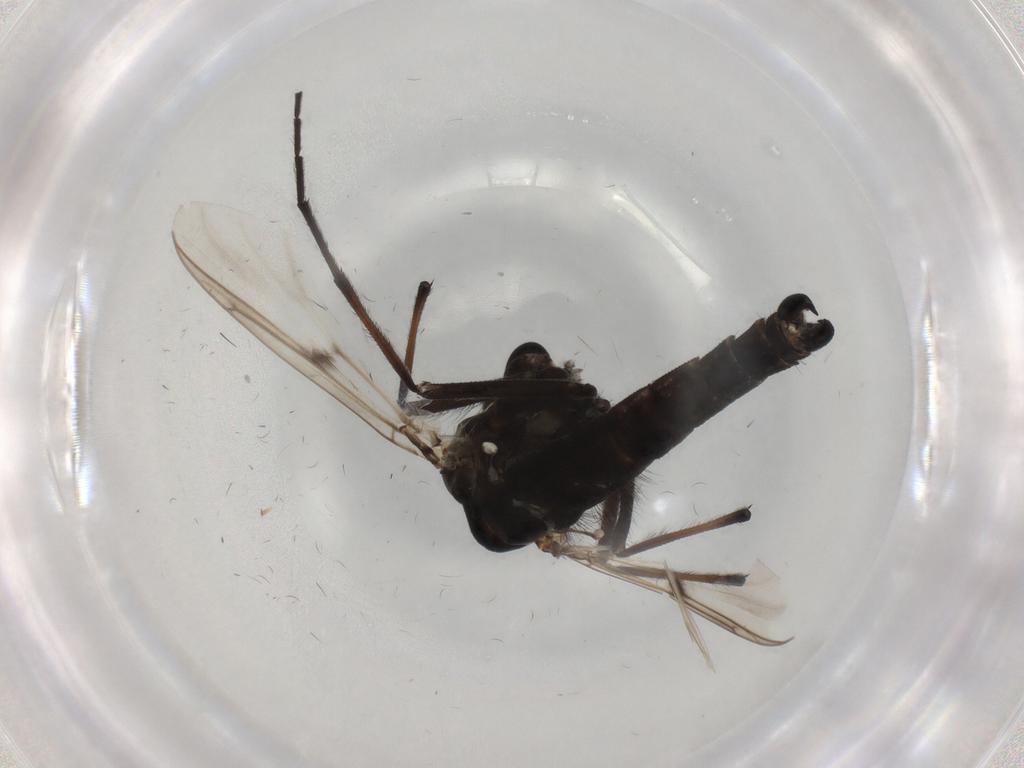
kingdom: Animalia
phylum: Arthropoda
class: Insecta
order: Diptera
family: Chironomidae
